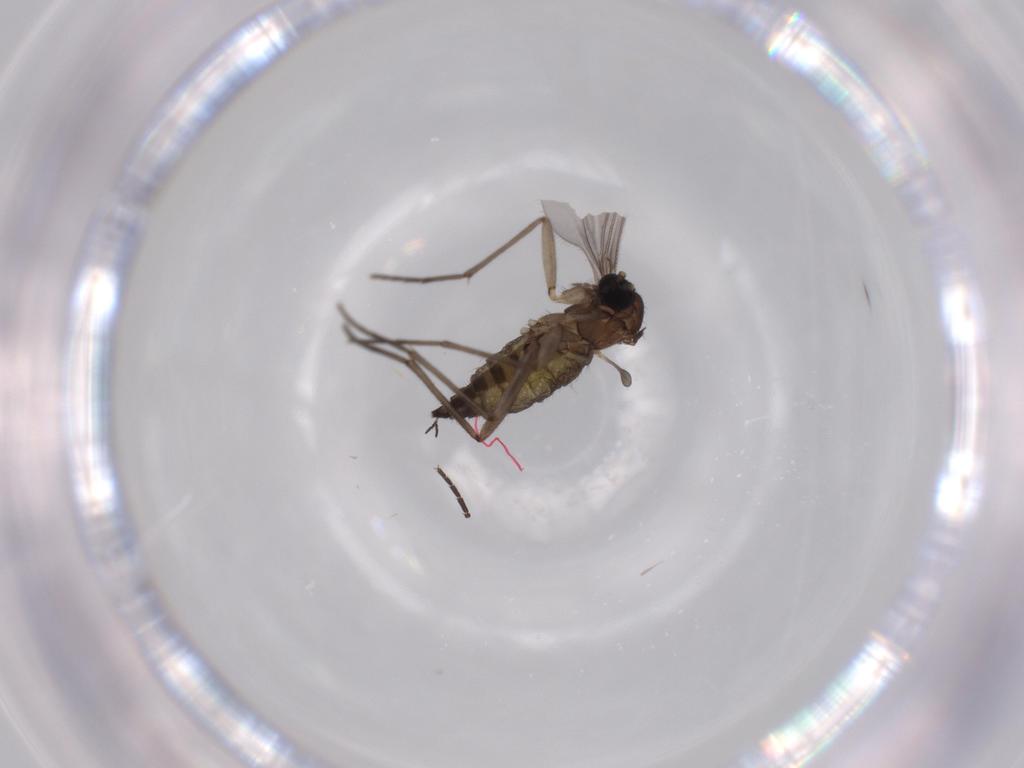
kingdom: Animalia
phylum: Arthropoda
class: Insecta
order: Diptera
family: Sciaridae
